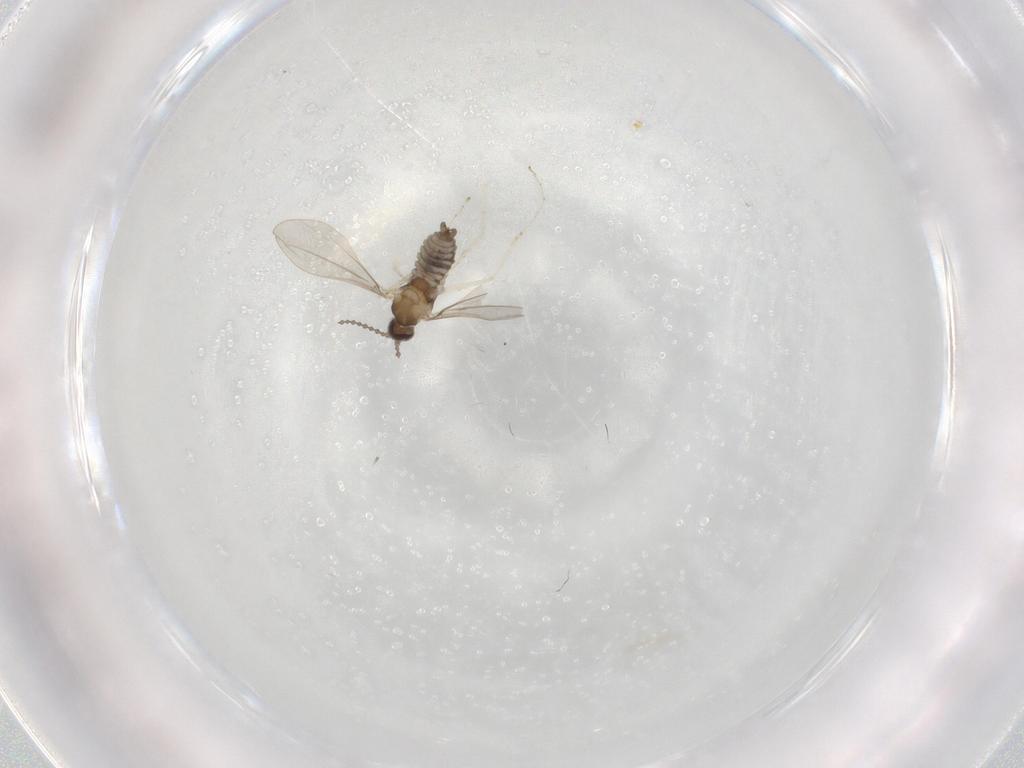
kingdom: Animalia
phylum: Arthropoda
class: Insecta
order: Diptera
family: Cecidomyiidae
